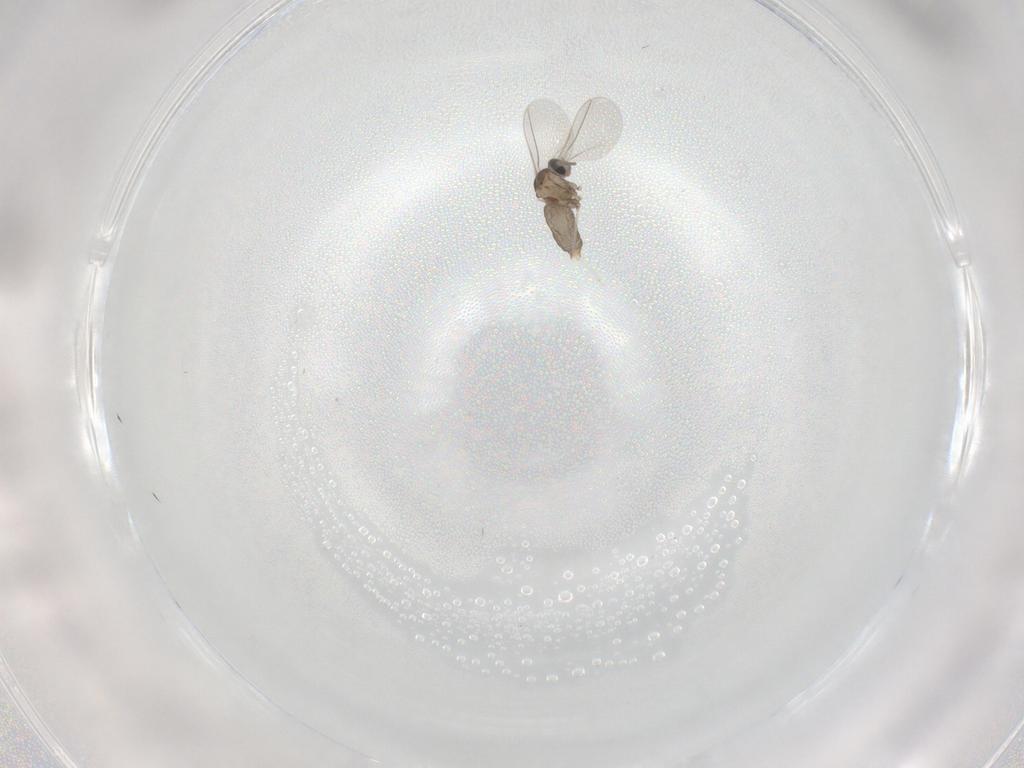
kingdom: Animalia
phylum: Arthropoda
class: Insecta
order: Diptera
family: Cecidomyiidae
